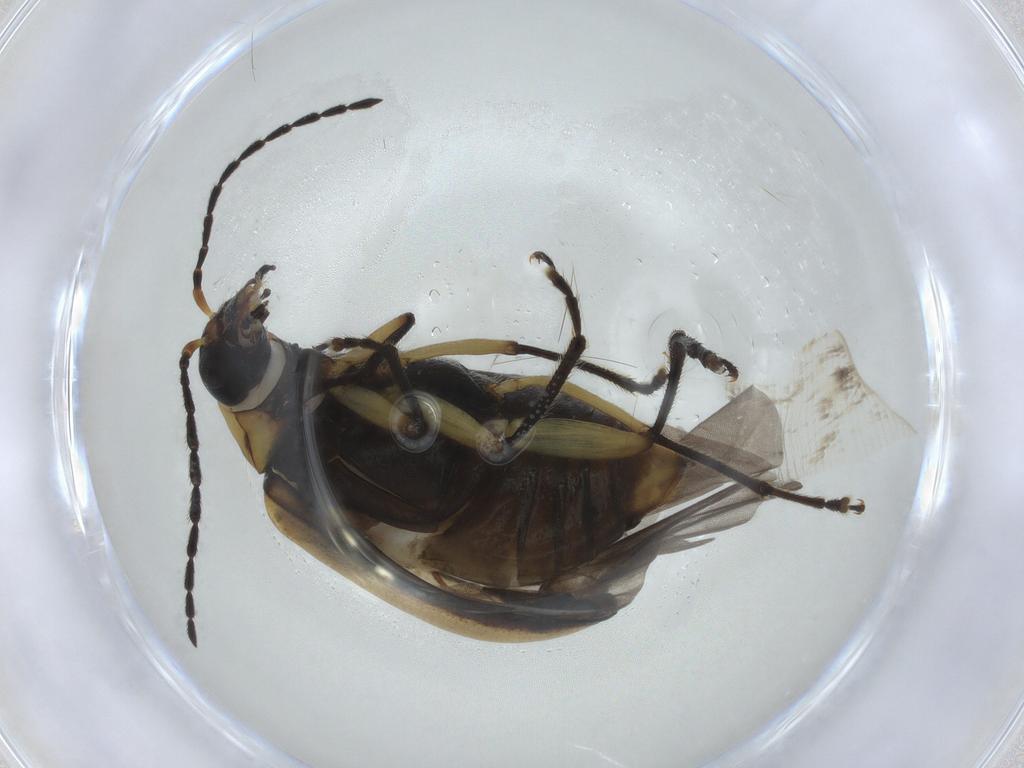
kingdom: Animalia
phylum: Arthropoda
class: Insecta
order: Coleoptera
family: Chrysomelidae
